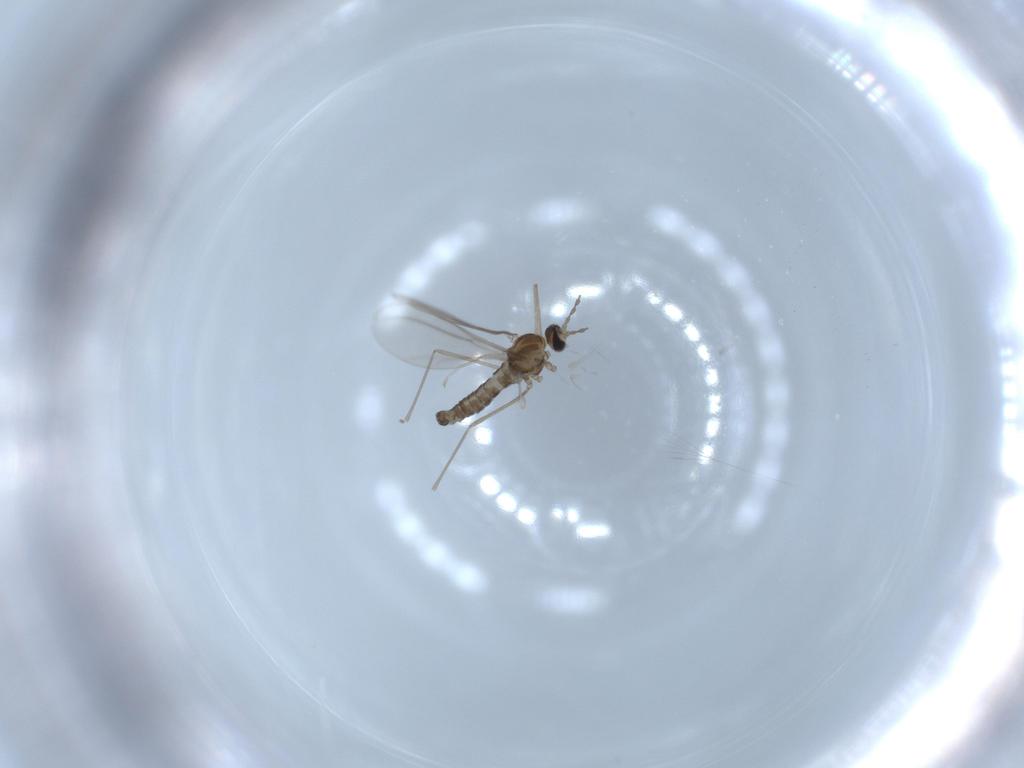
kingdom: Animalia
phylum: Arthropoda
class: Insecta
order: Diptera
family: Cecidomyiidae
